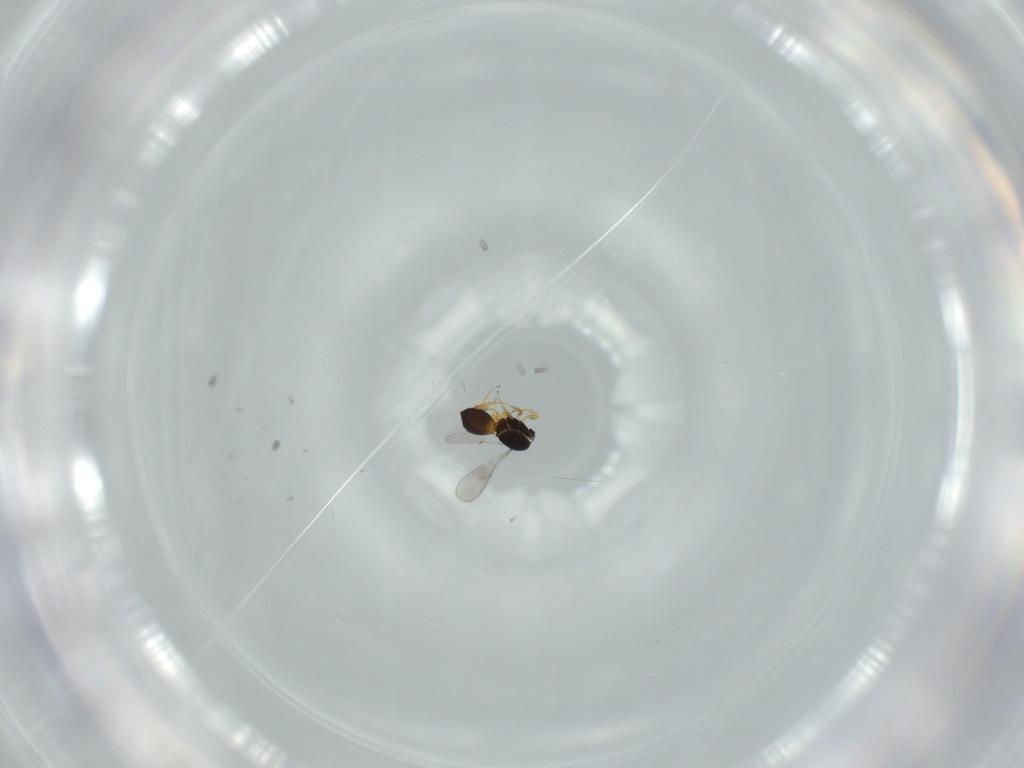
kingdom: Animalia
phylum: Arthropoda
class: Insecta
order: Hymenoptera
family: Scelionidae
